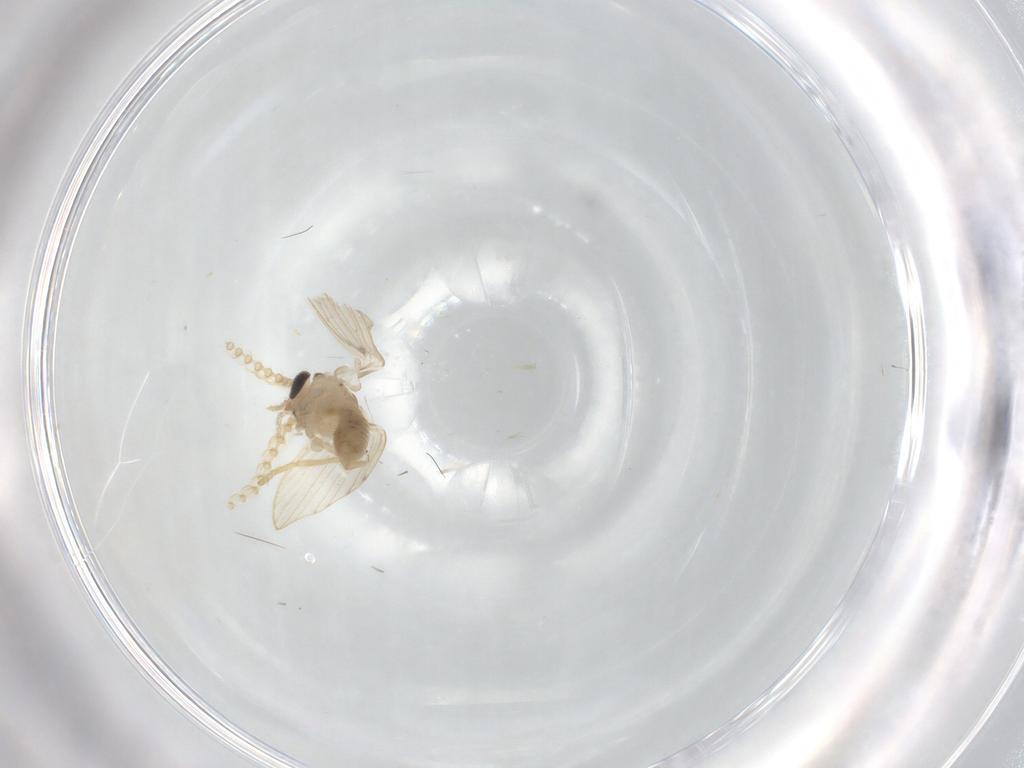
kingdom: Animalia
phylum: Arthropoda
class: Insecta
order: Diptera
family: Psychodidae
